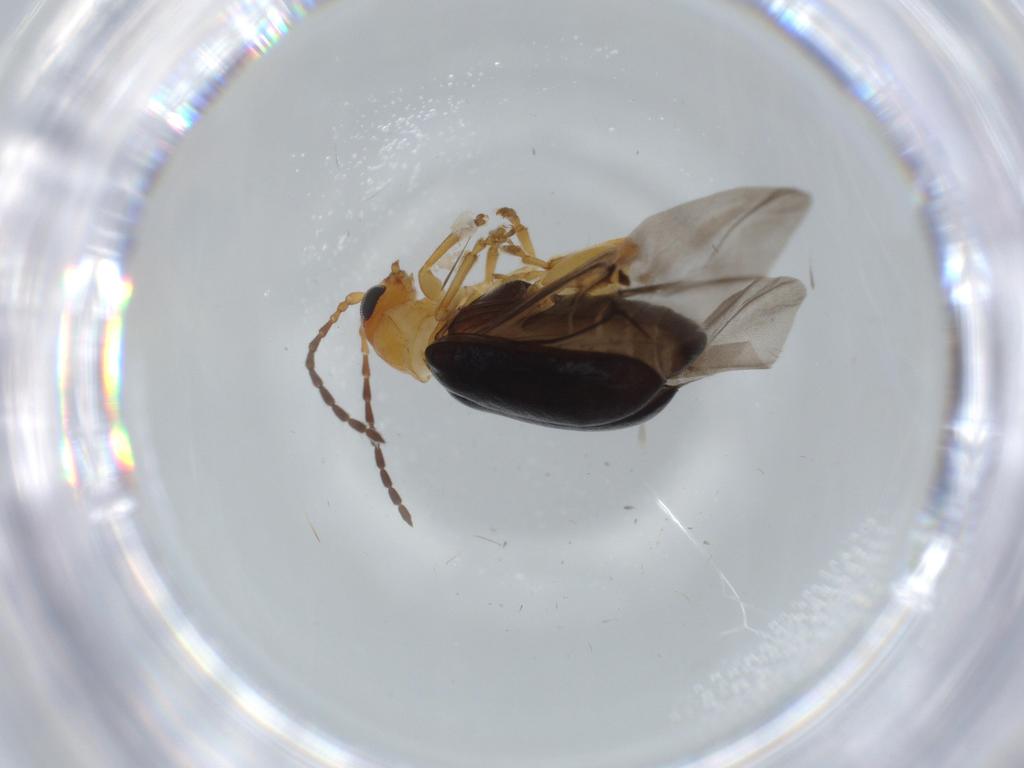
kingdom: Animalia
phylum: Arthropoda
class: Insecta
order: Coleoptera
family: Chrysomelidae
